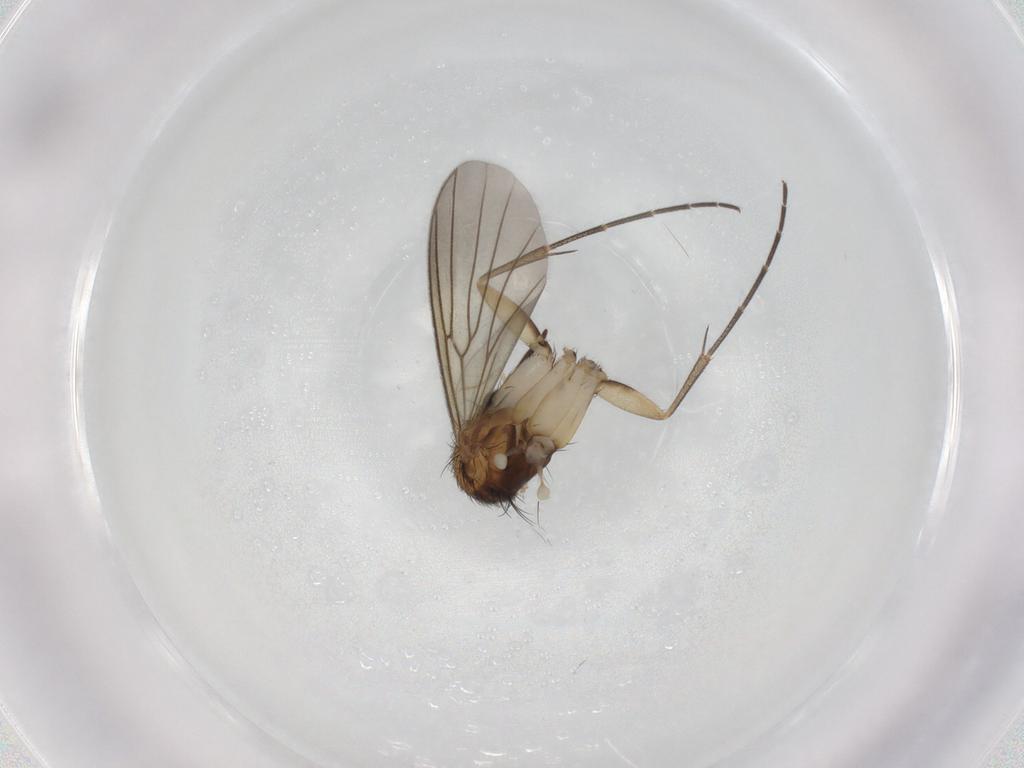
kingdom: Animalia
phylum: Arthropoda
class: Insecta
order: Diptera
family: Mycetophilidae
